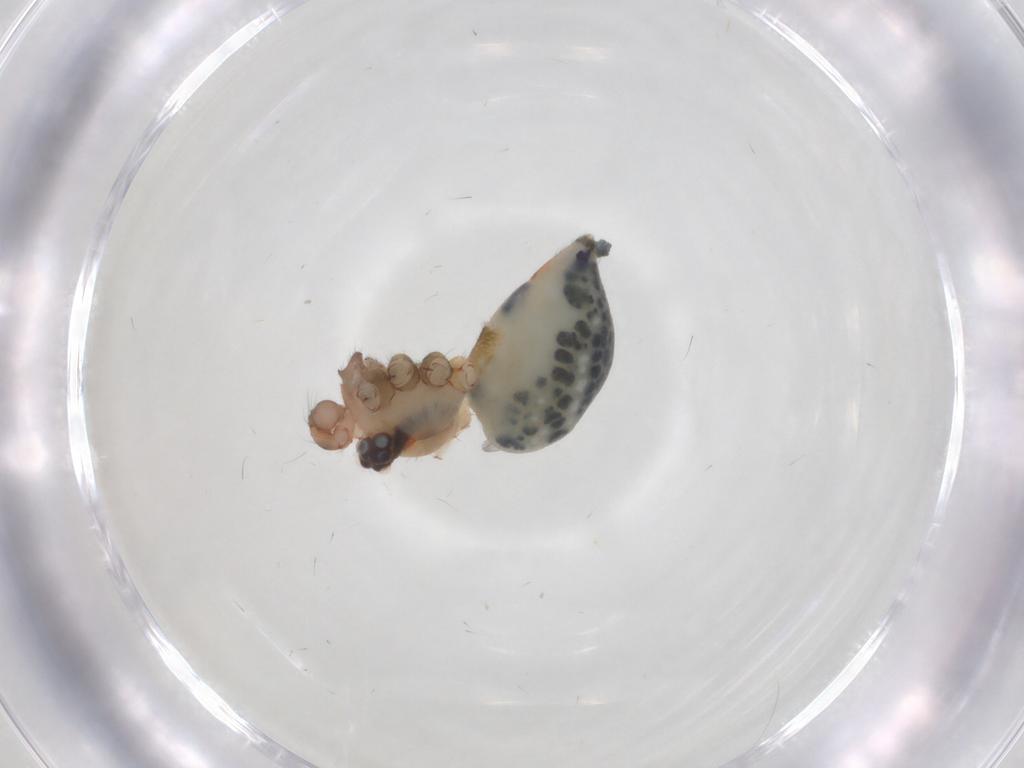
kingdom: Animalia
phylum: Arthropoda
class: Arachnida
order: Araneae
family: Pholcidae
